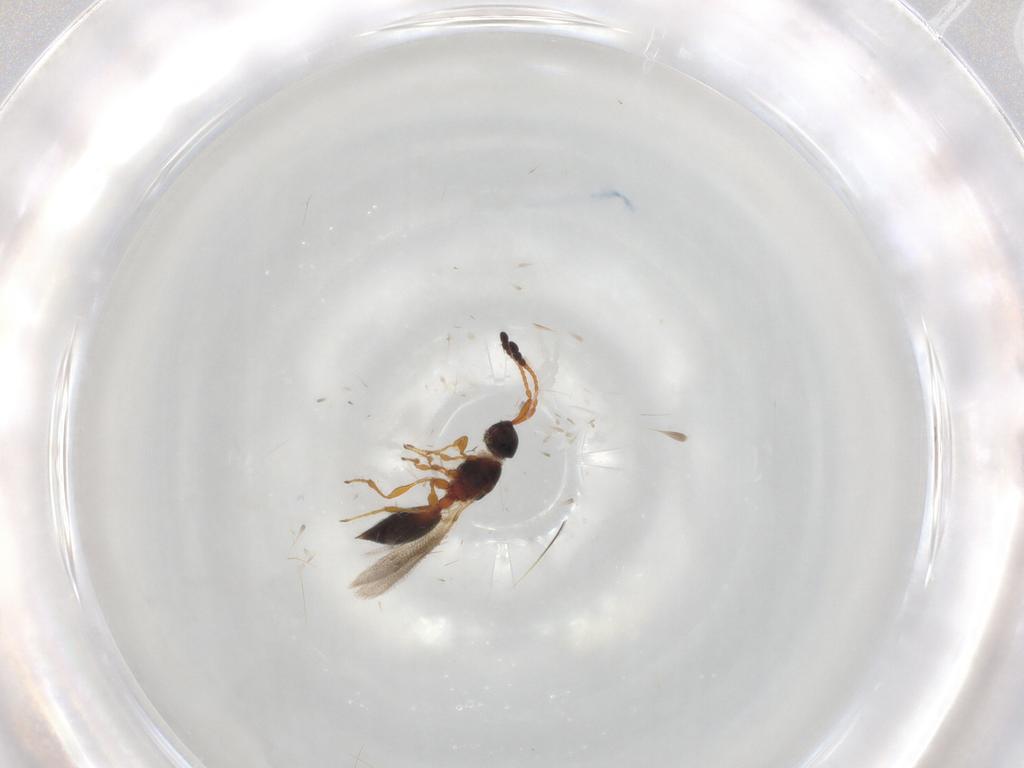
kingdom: Animalia
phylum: Arthropoda
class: Insecta
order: Hymenoptera
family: Diapriidae
